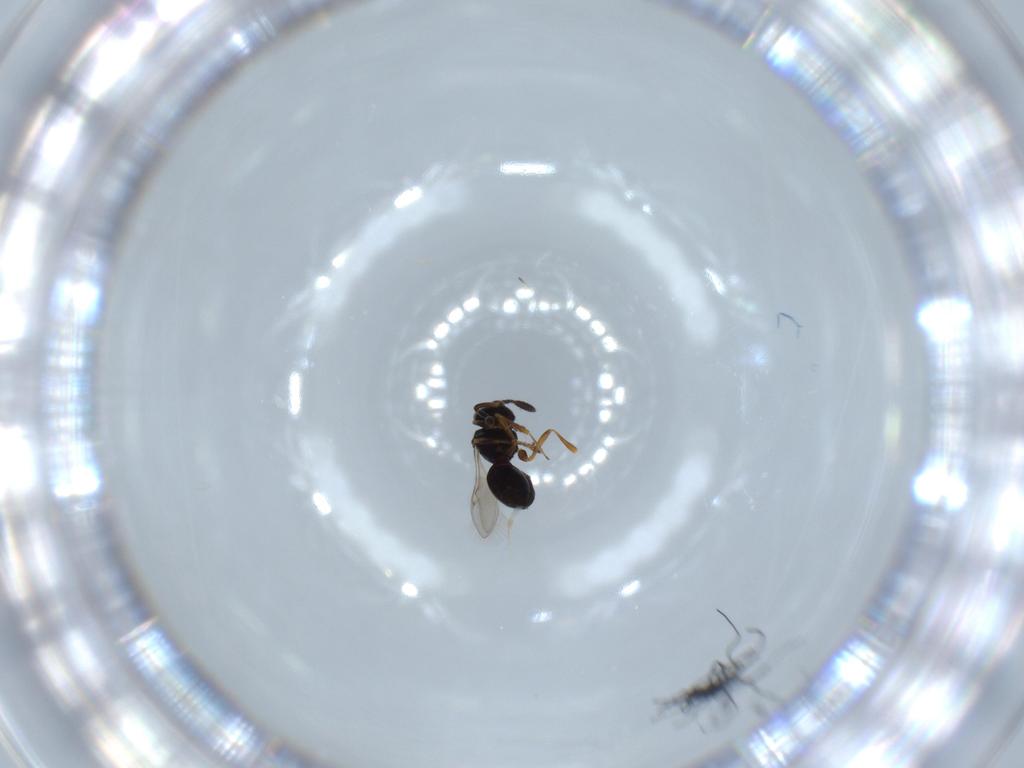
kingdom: Animalia
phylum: Arthropoda
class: Insecta
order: Hymenoptera
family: Scelionidae
